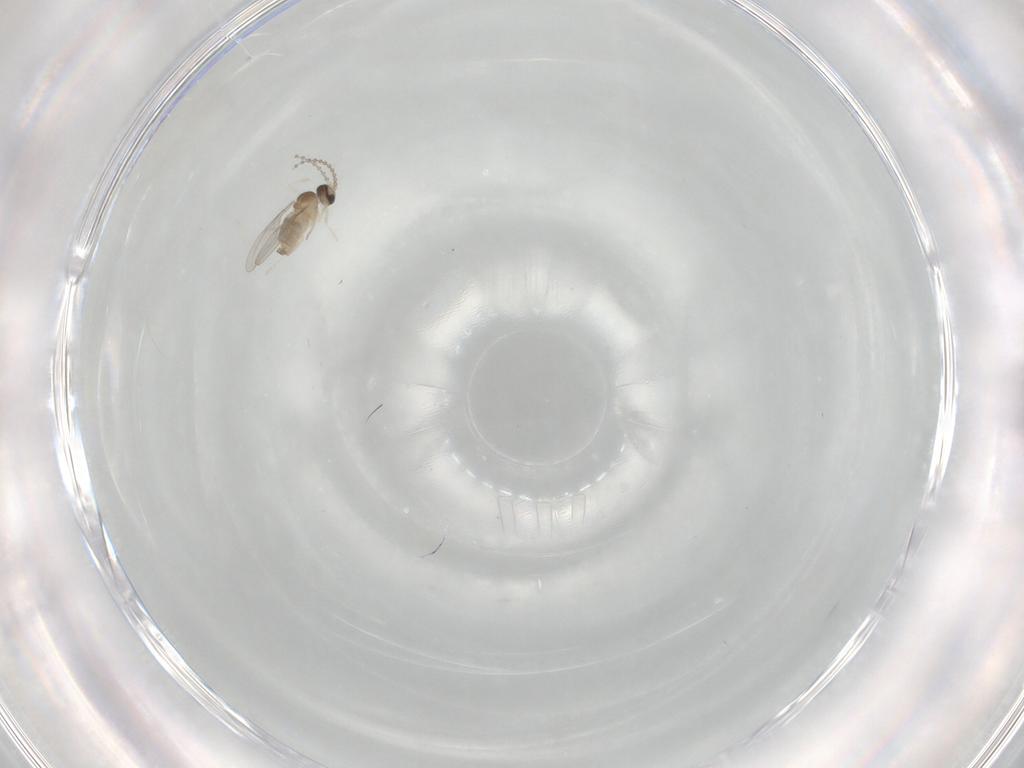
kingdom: Animalia
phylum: Arthropoda
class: Insecta
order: Diptera
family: Cecidomyiidae
